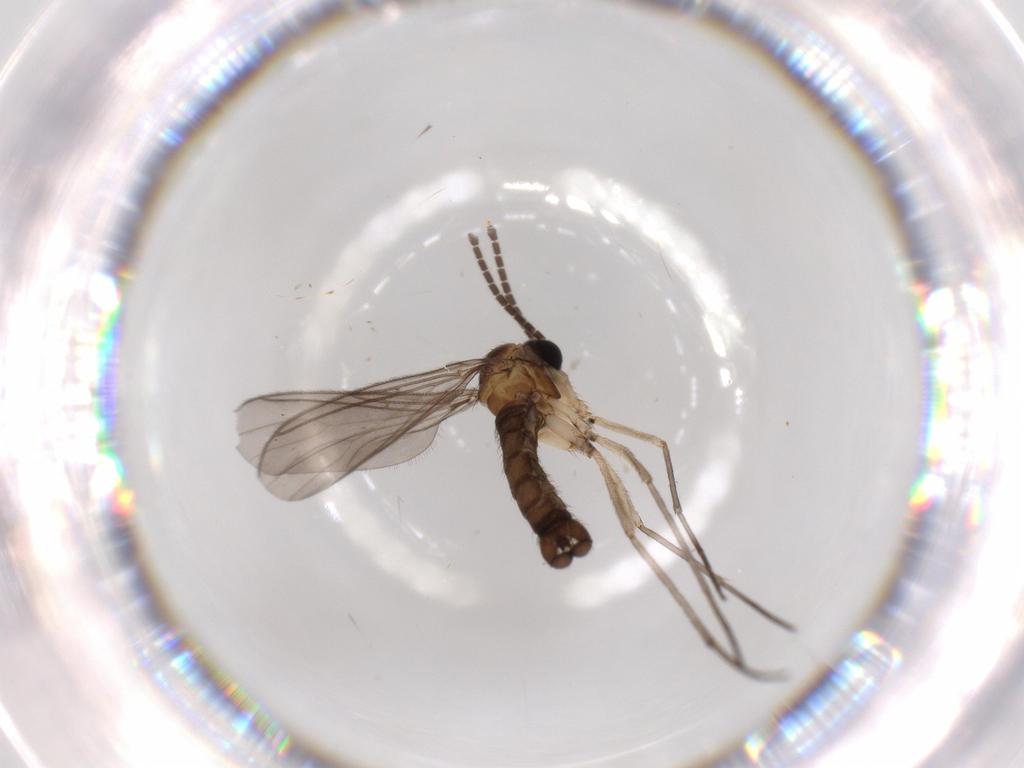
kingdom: Animalia
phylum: Arthropoda
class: Insecta
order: Diptera
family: Sciaridae
